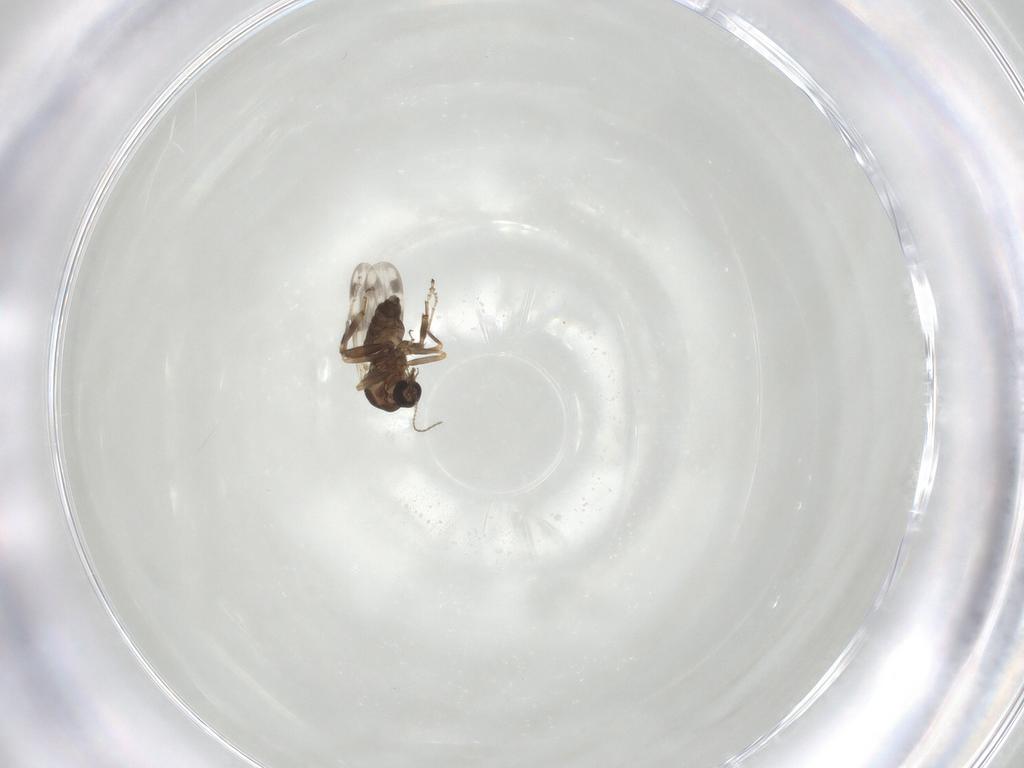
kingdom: Animalia
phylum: Arthropoda
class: Insecta
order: Diptera
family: Ceratopogonidae
